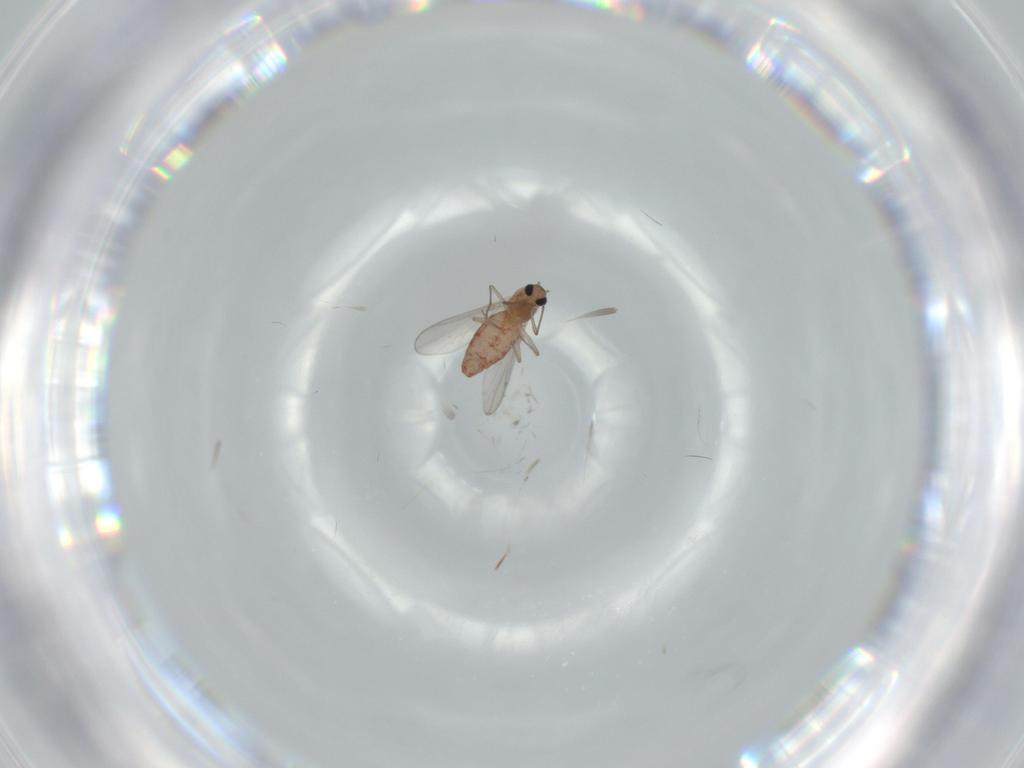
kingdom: Animalia
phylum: Arthropoda
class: Insecta
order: Diptera
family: Chironomidae
